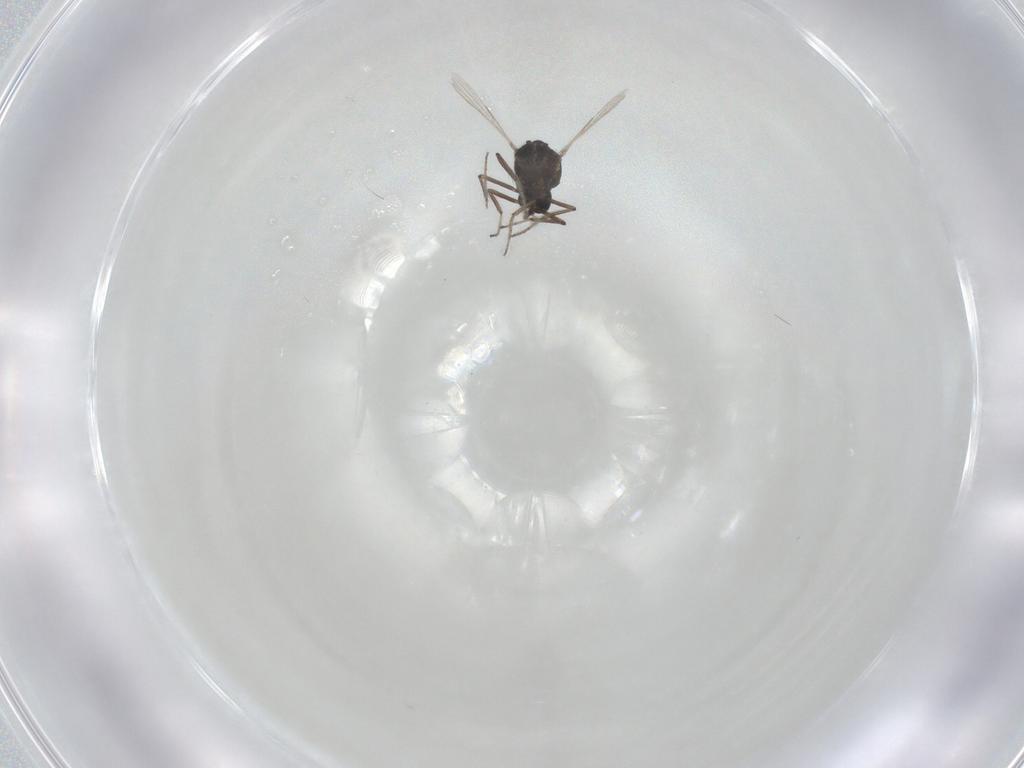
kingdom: Animalia
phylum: Arthropoda
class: Insecta
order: Diptera
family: Ceratopogonidae
